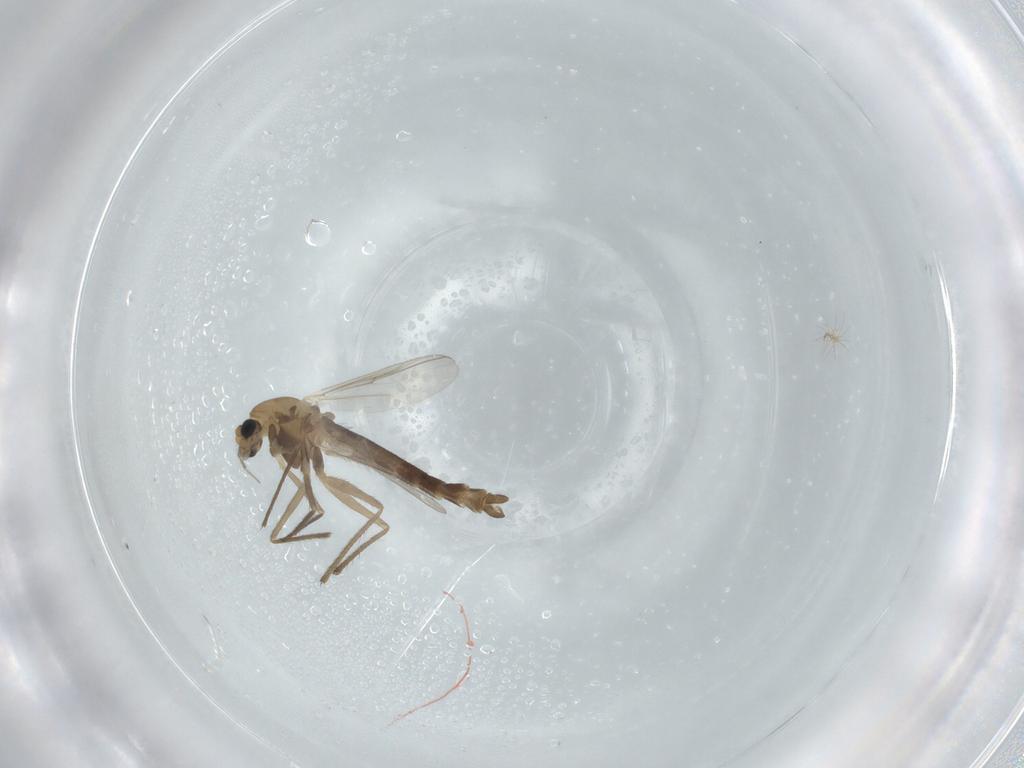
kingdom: Animalia
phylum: Arthropoda
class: Insecta
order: Diptera
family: Chironomidae
